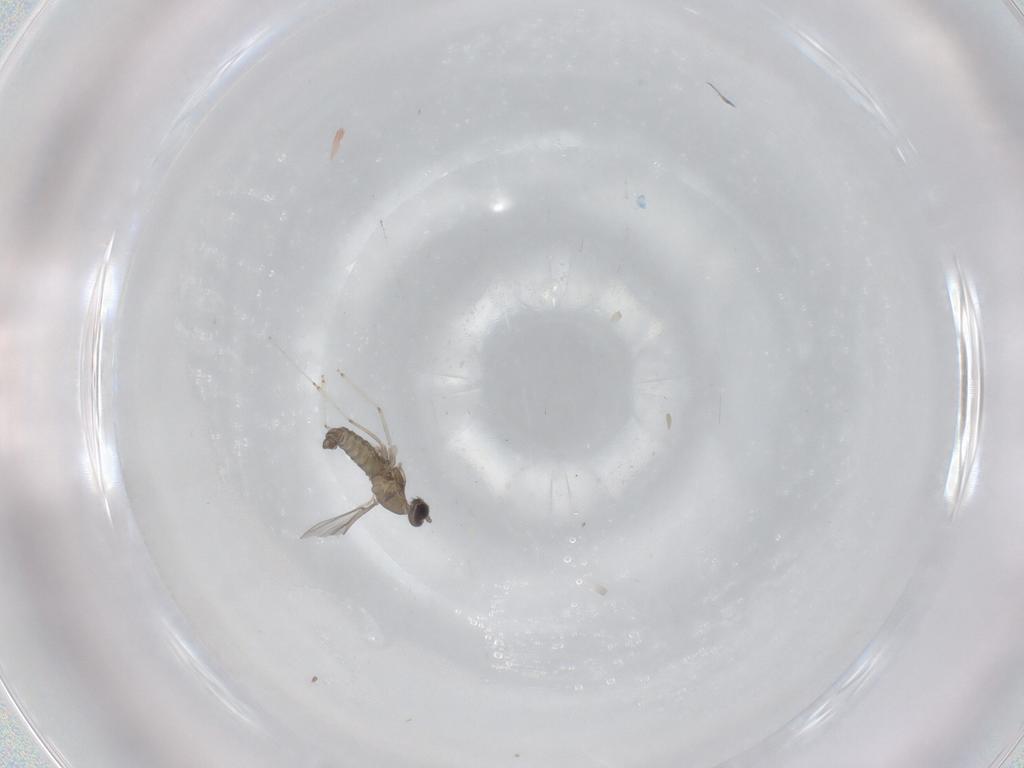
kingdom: Animalia
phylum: Arthropoda
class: Insecta
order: Diptera
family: Cecidomyiidae
